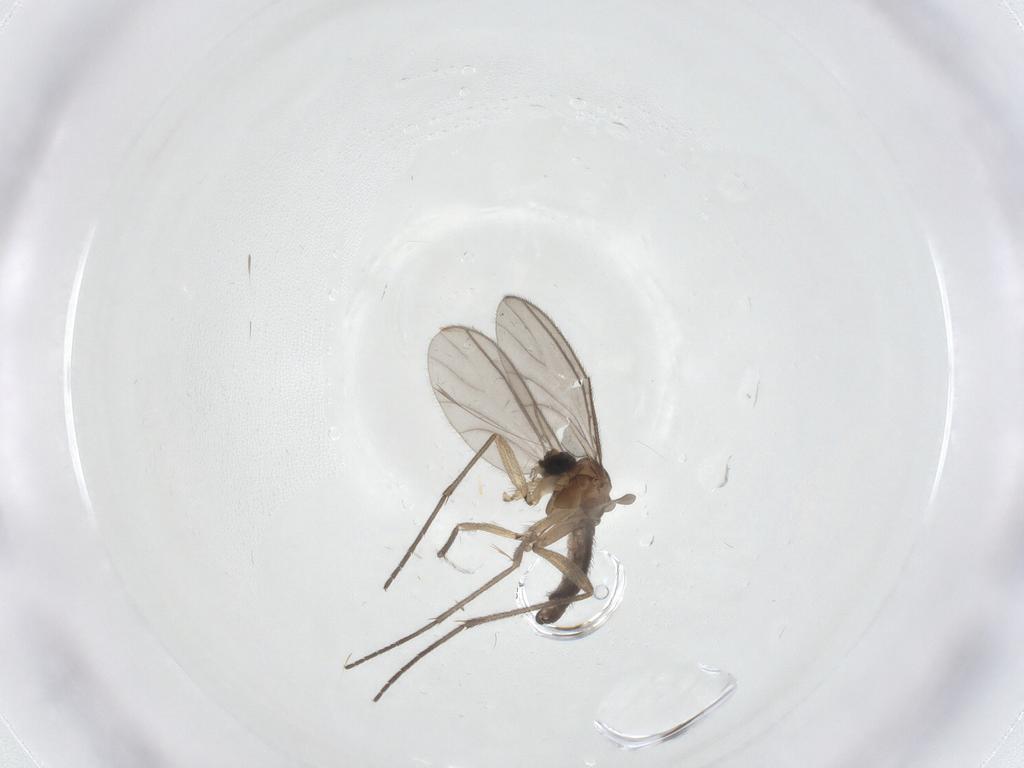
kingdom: Animalia
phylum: Arthropoda
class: Insecta
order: Diptera
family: Sciaridae
